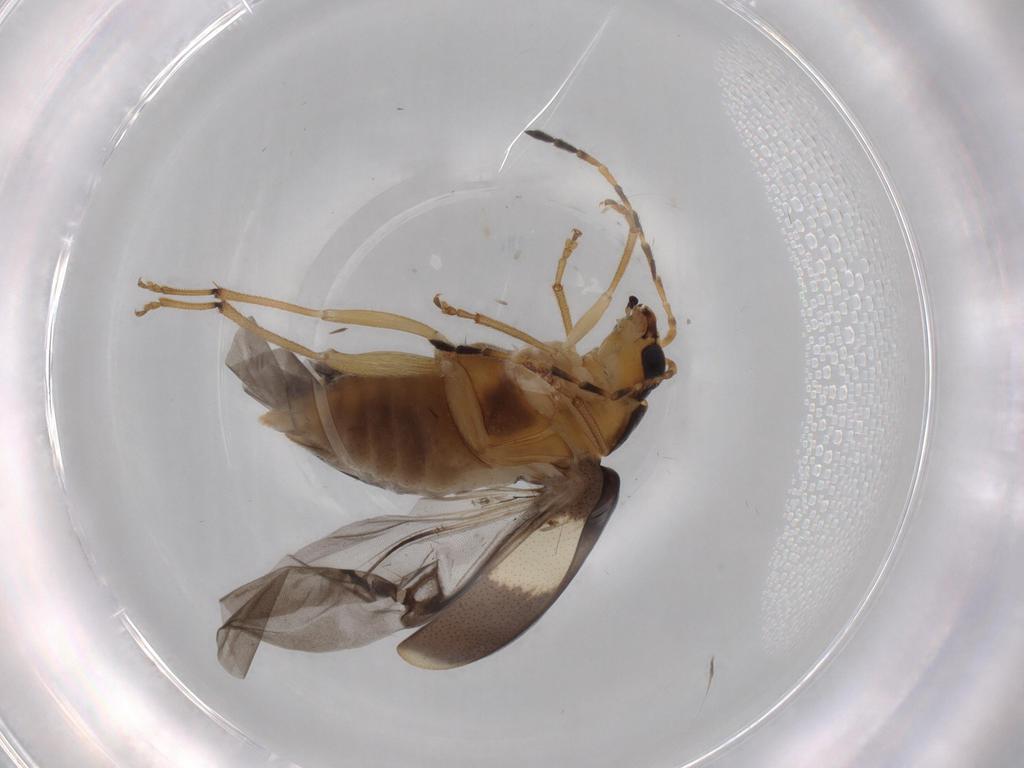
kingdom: Animalia
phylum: Arthropoda
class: Insecta
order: Coleoptera
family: Chrysomelidae
